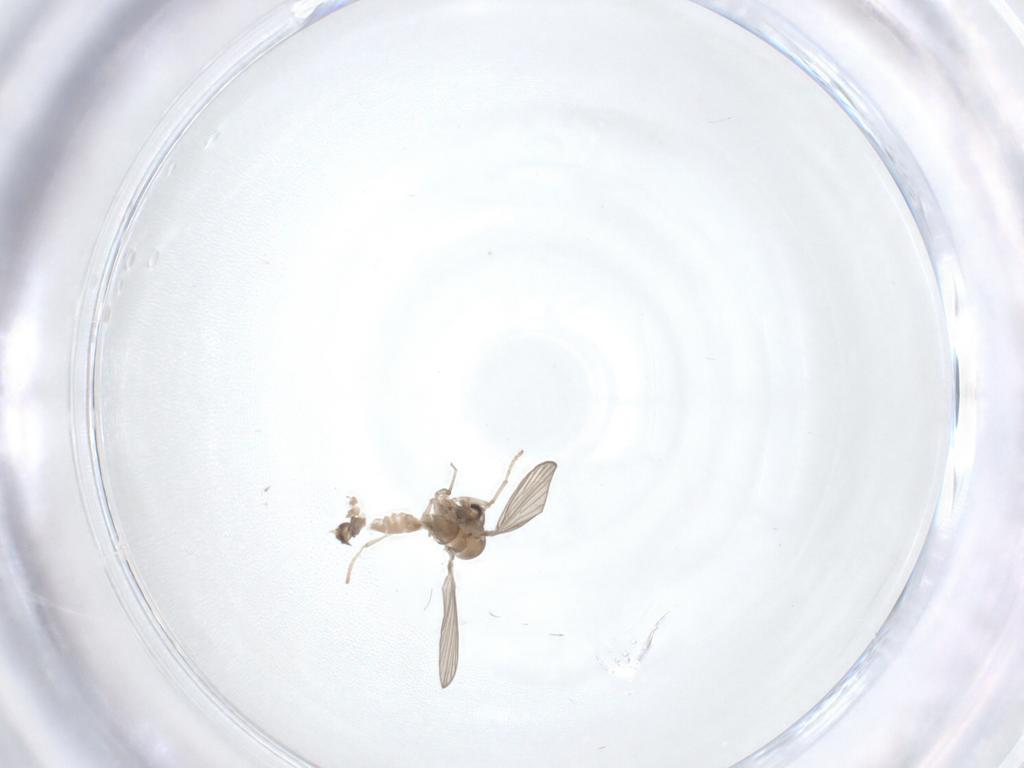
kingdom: Animalia
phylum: Arthropoda
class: Insecta
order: Diptera
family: Psychodidae
